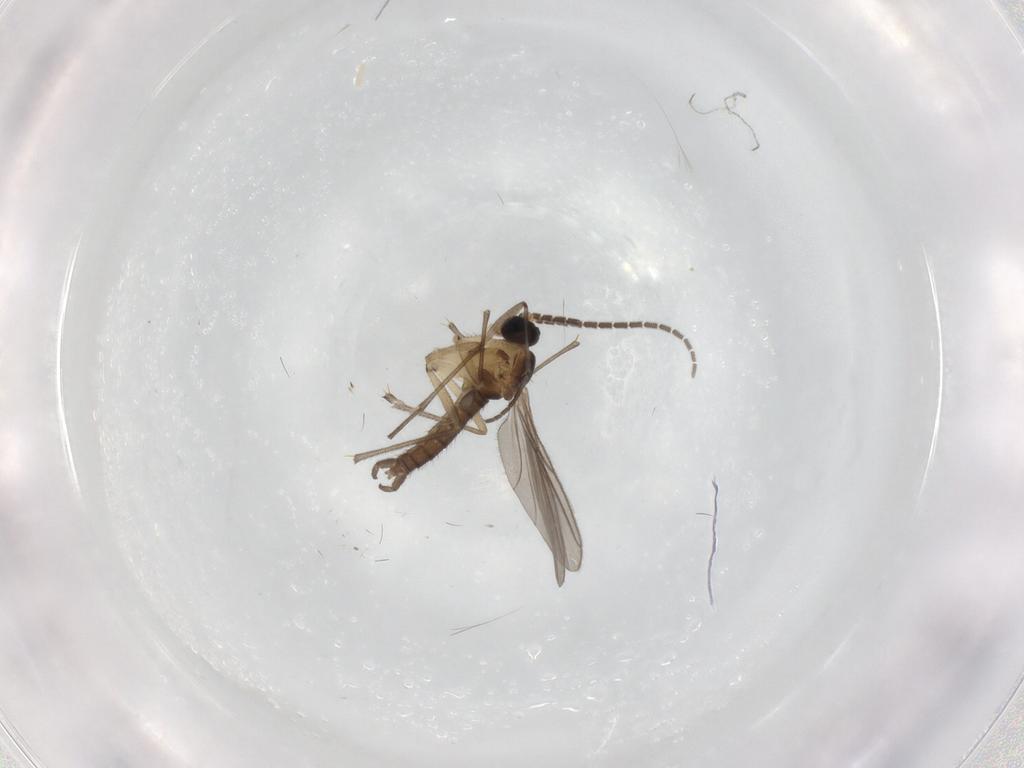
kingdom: Animalia
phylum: Arthropoda
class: Insecta
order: Diptera
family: Sciaridae
